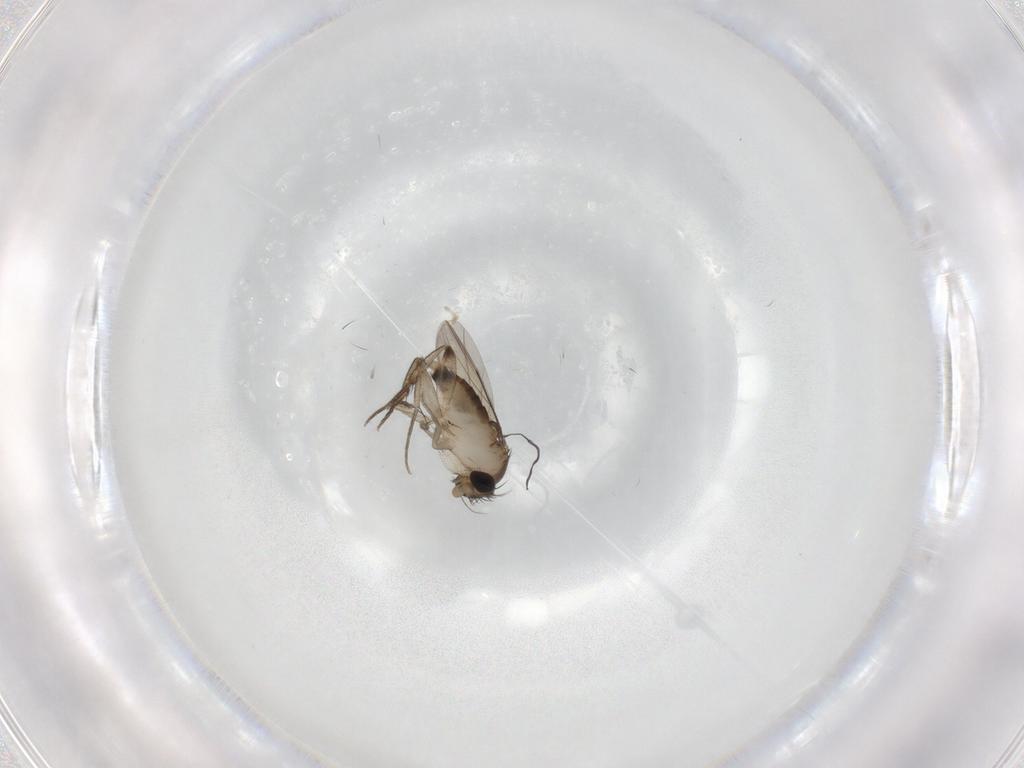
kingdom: Animalia
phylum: Arthropoda
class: Insecta
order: Diptera
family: Phoridae
